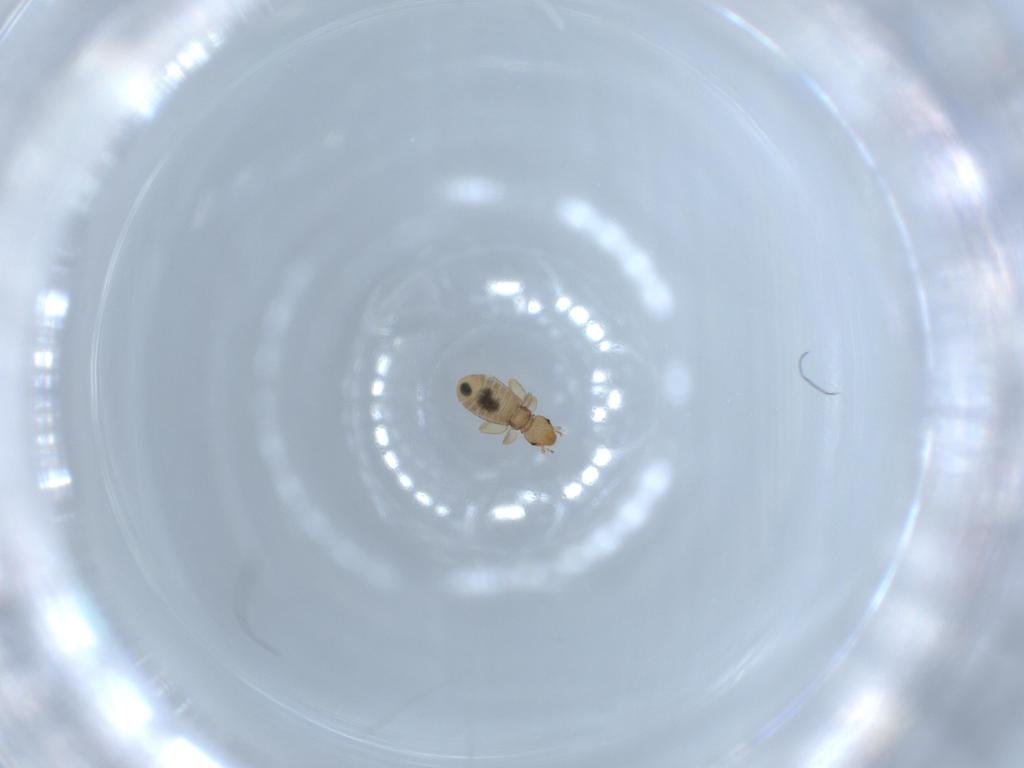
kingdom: Animalia
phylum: Arthropoda
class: Insecta
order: Psocodea
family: Liposcelididae
